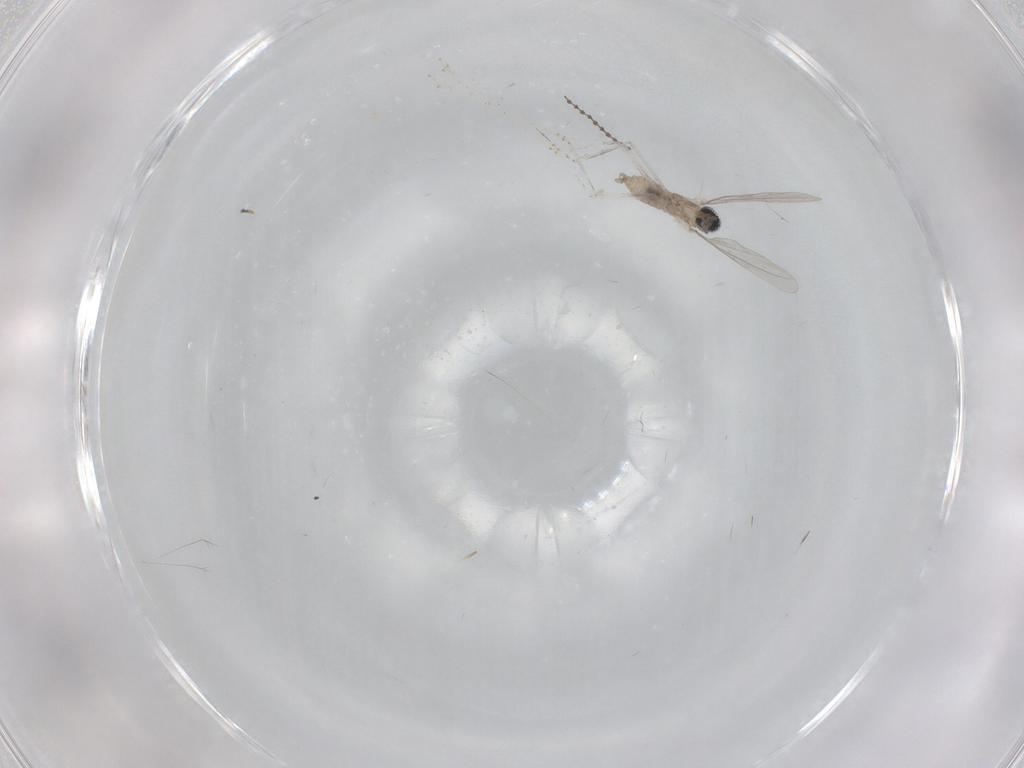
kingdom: Animalia
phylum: Arthropoda
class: Insecta
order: Diptera
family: Cecidomyiidae
